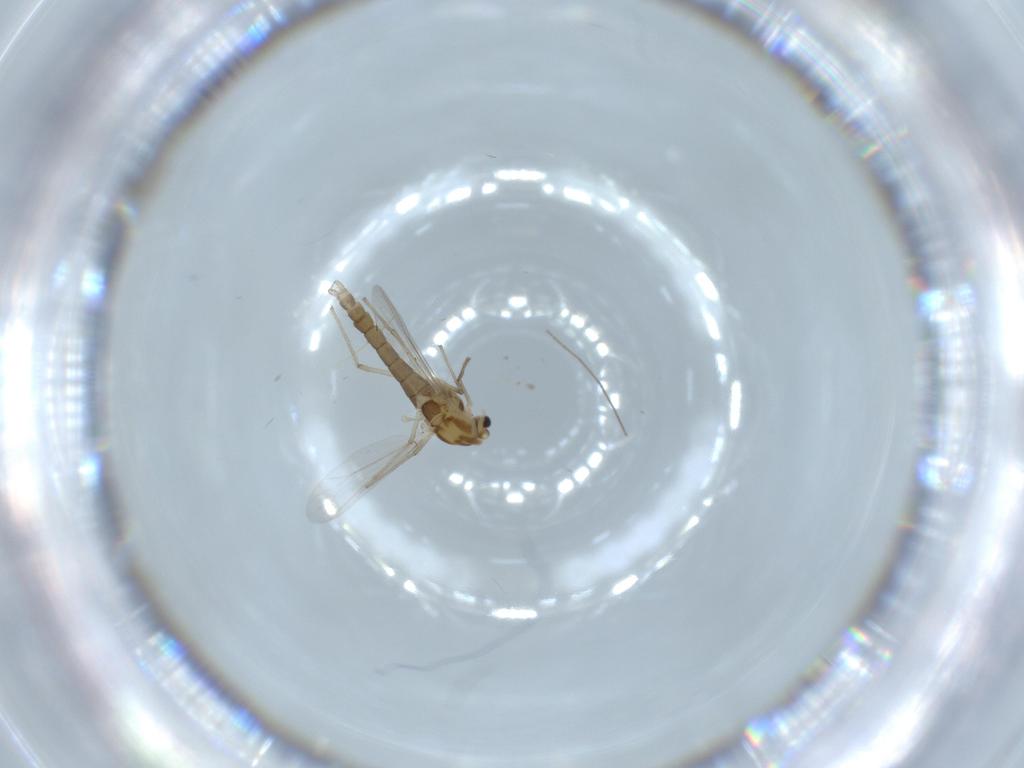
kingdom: Animalia
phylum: Arthropoda
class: Insecta
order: Diptera
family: Chironomidae
